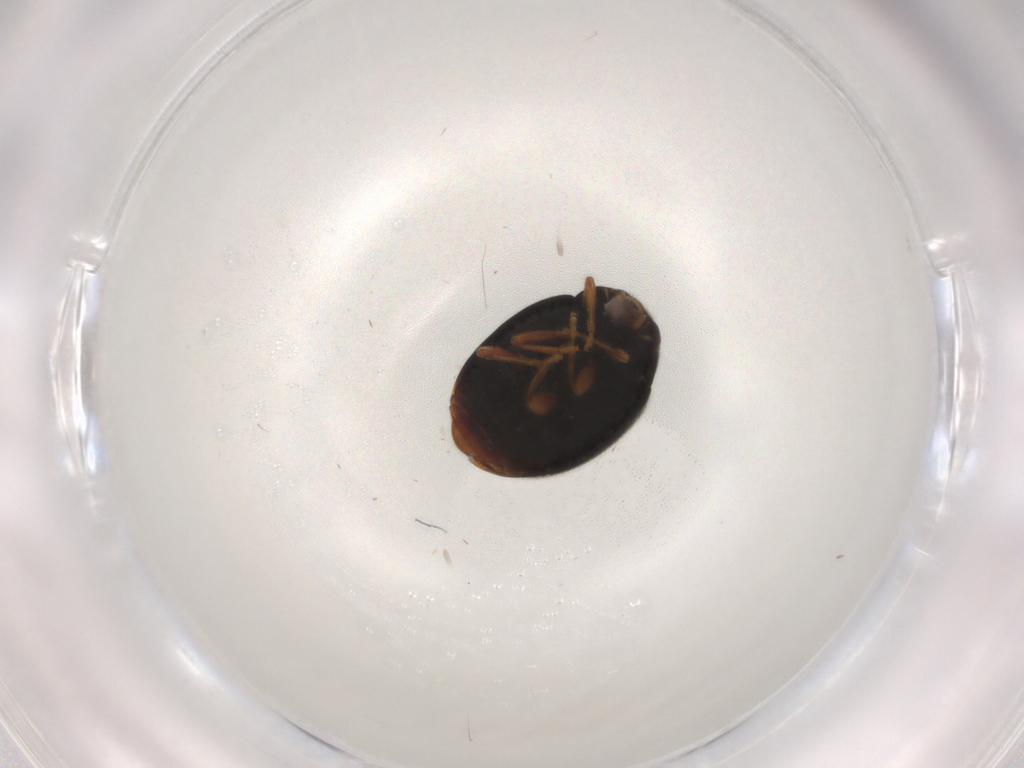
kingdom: Animalia
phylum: Arthropoda
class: Insecta
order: Coleoptera
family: Coccinellidae
